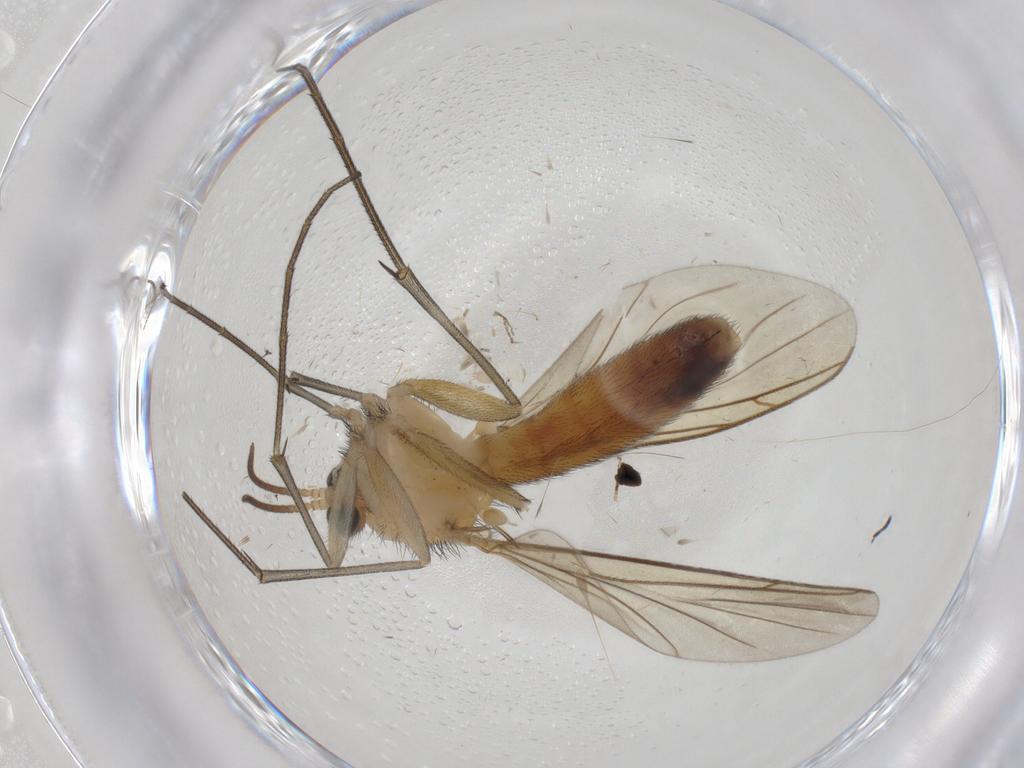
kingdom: Animalia
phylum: Arthropoda
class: Insecta
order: Diptera
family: Keroplatidae
